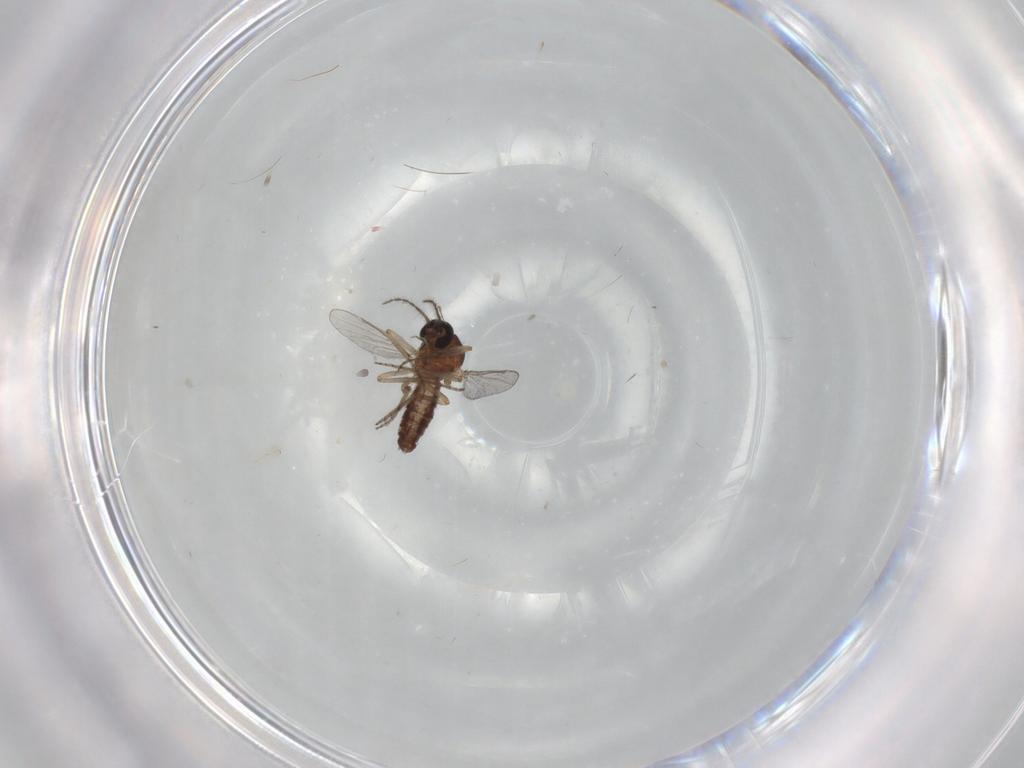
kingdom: Animalia
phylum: Arthropoda
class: Insecta
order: Diptera
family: Ceratopogonidae
